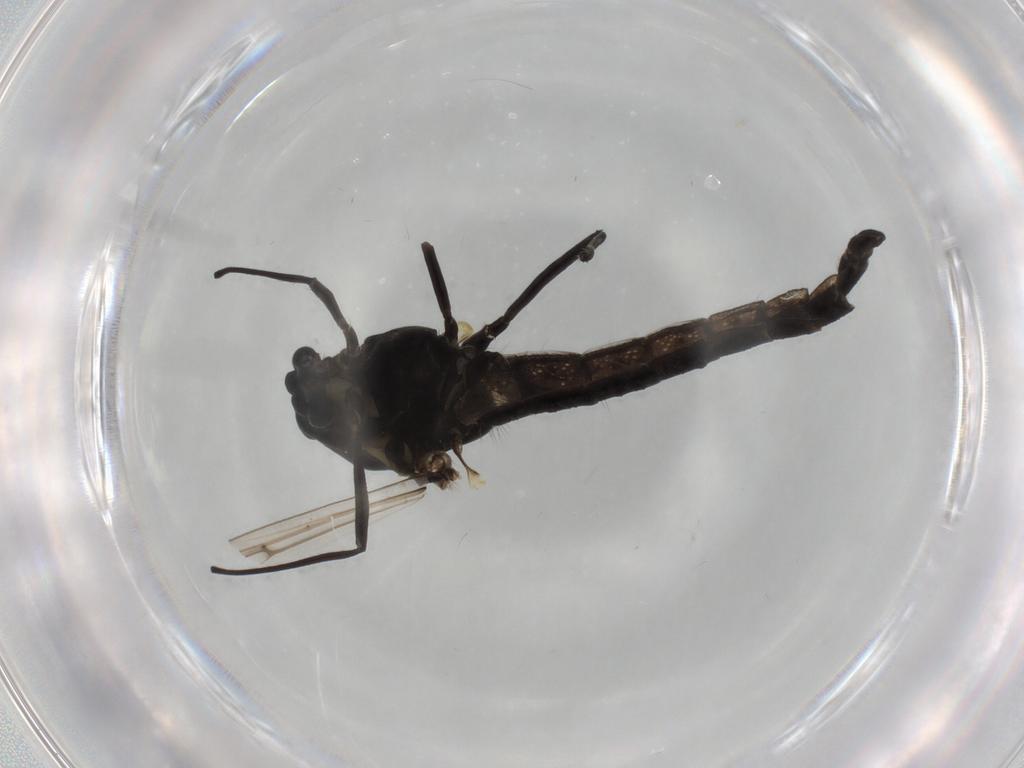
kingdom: Animalia
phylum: Arthropoda
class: Insecta
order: Diptera
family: Chironomidae
